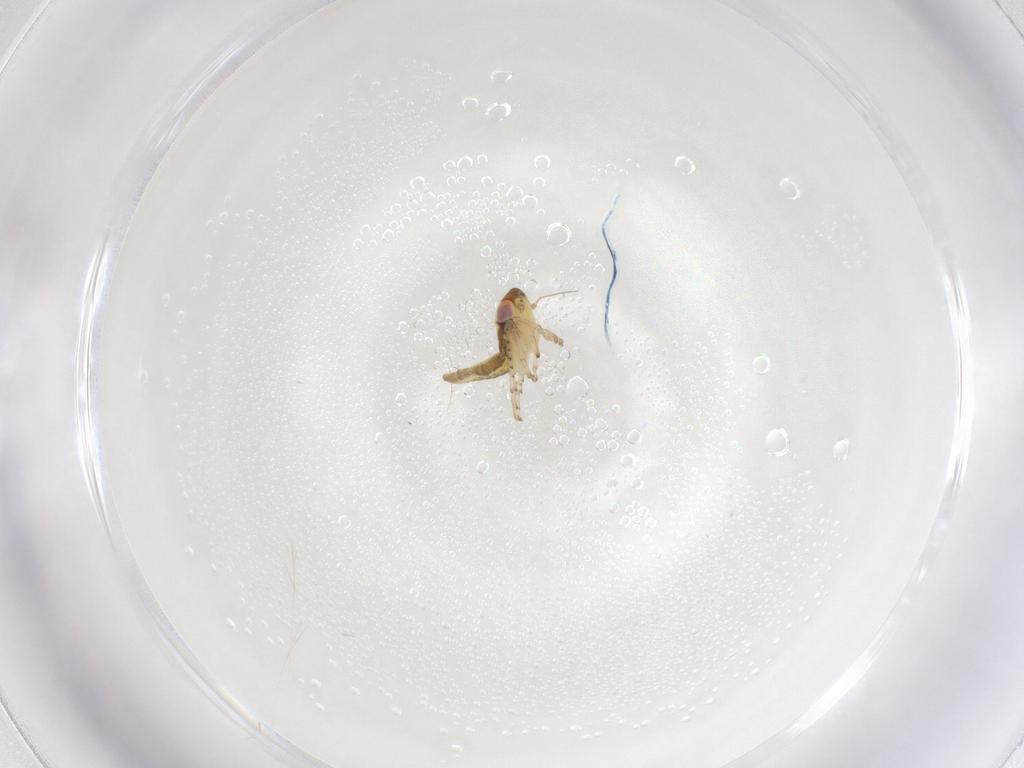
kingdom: Animalia
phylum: Arthropoda
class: Insecta
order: Hemiptera
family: Cicadellidae
